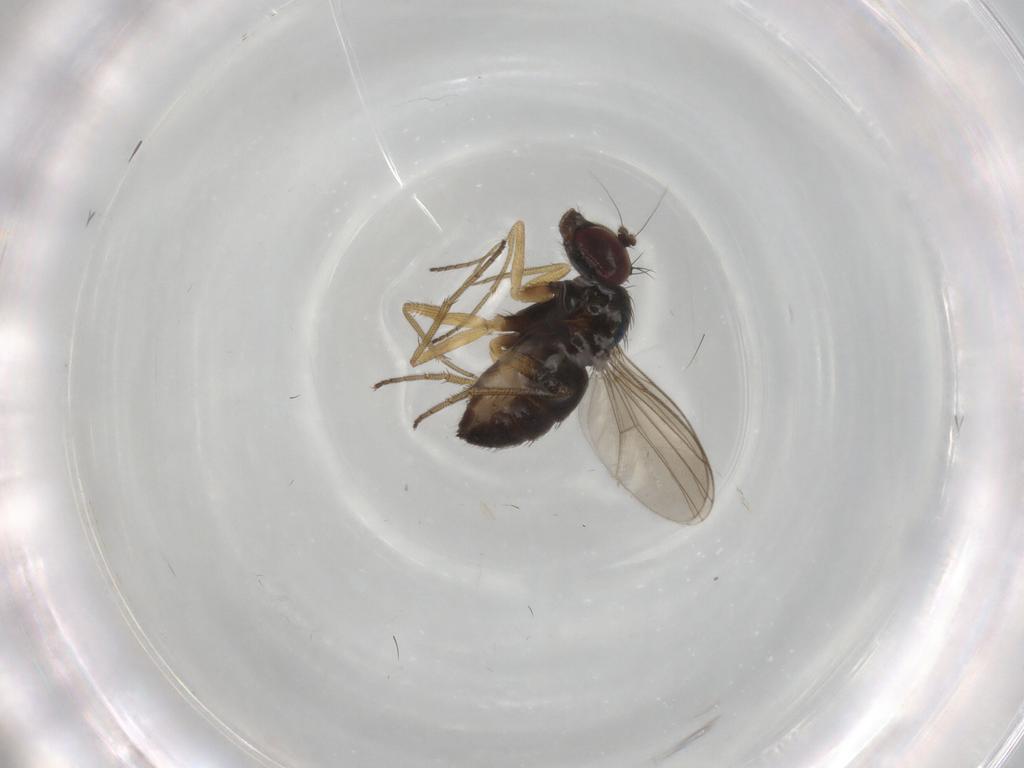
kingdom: Animalia
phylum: Arthropoda
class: Insecta
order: Diptera
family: Dolichopodidae
